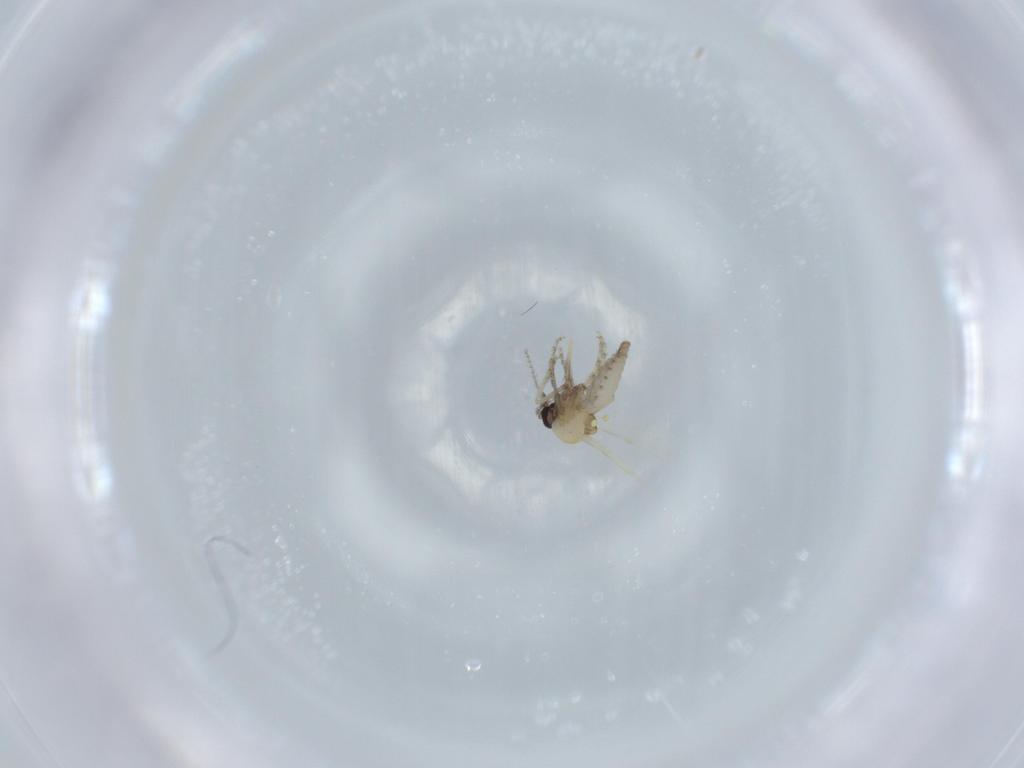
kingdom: Animalia
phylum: Arthropoda
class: Insecta
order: Diptera
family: Ceratopogonidae
